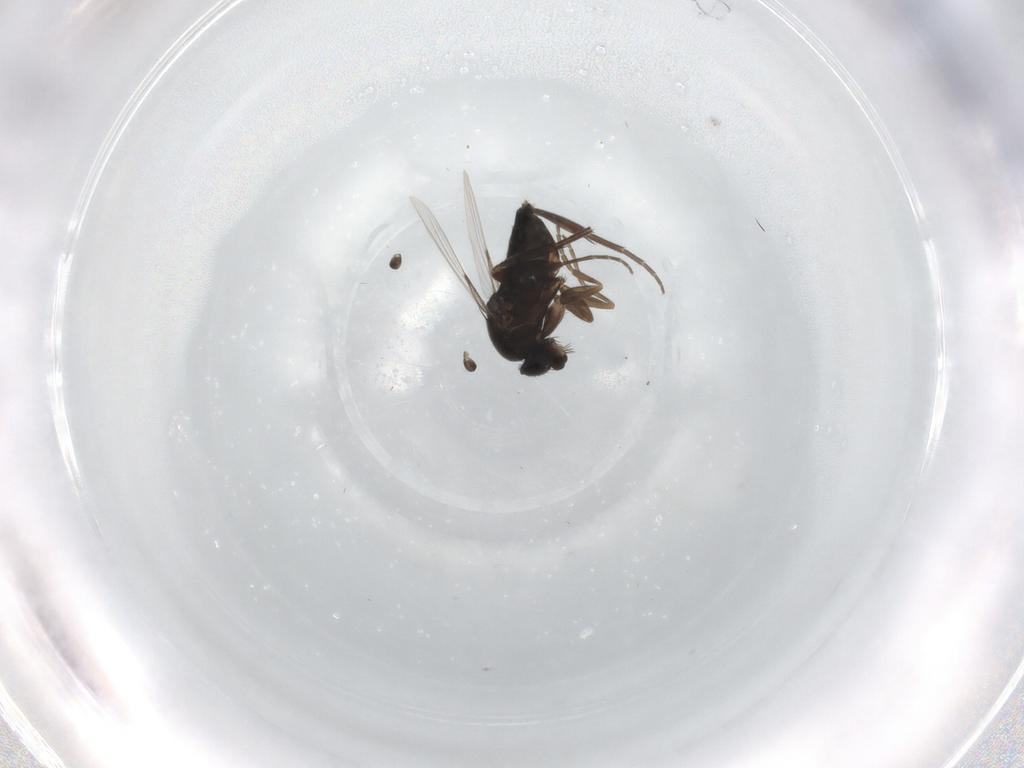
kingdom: Animalia
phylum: Arthropoda
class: Insecta
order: Diptera
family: Phoridae
